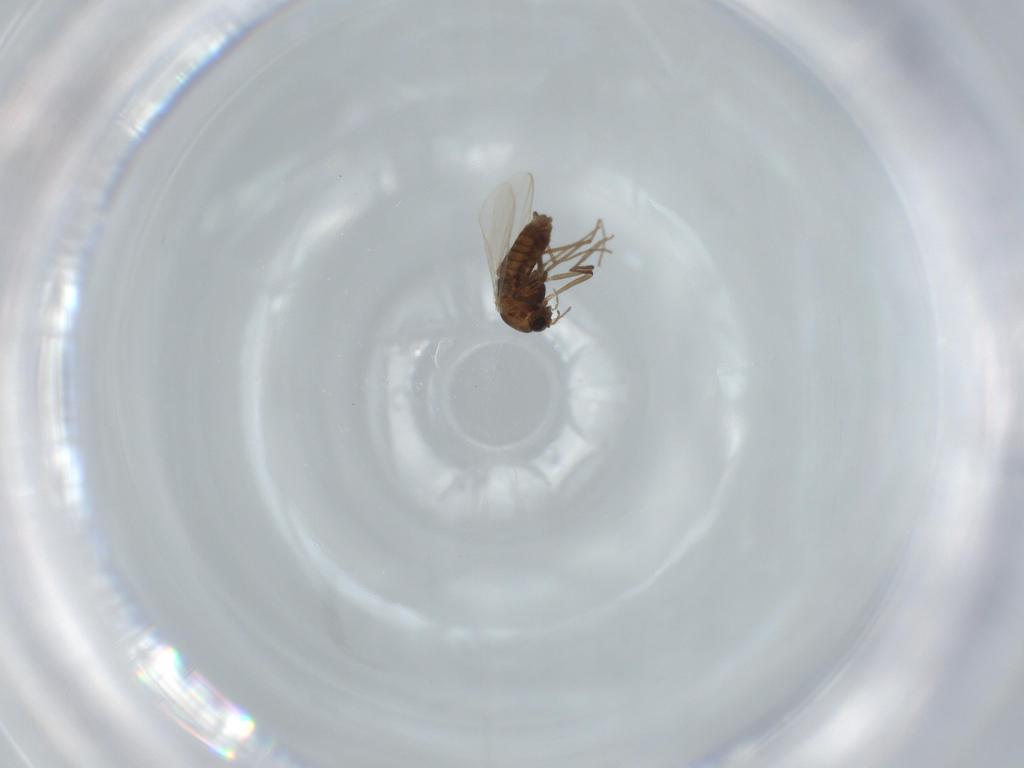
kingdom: Animalia
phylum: Arthropoda
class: Insecta
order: Diptera
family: Chironomidae
